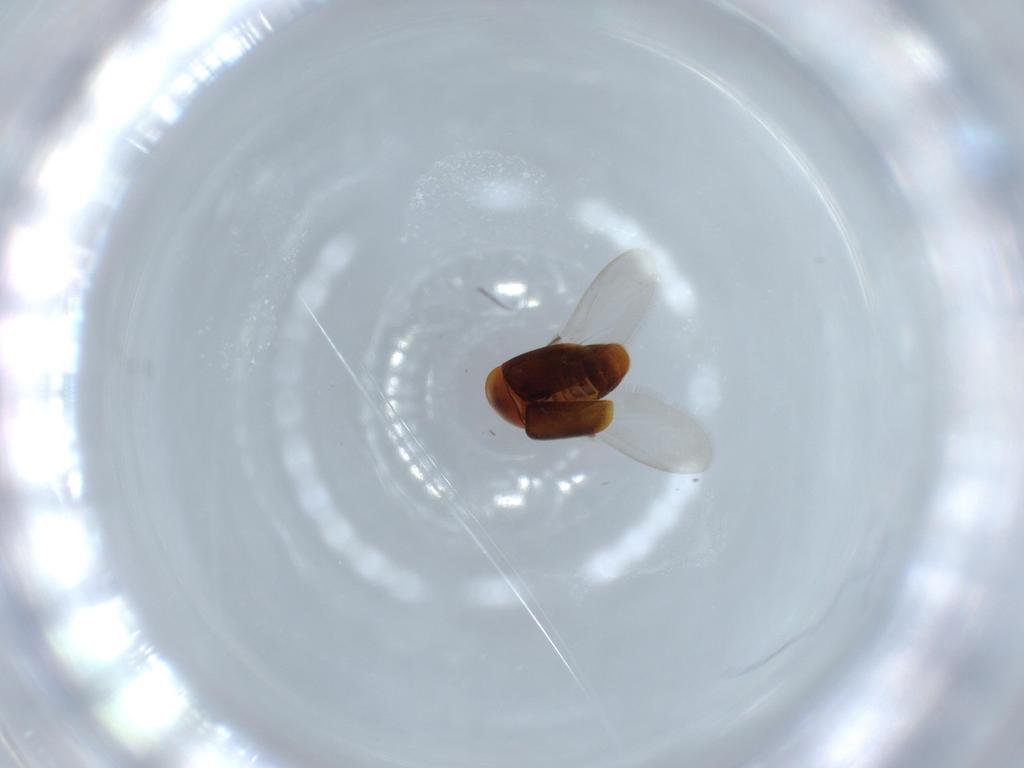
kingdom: Animalia
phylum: Arthropoda
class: Insecta
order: Coleoptera
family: Corylophidae
